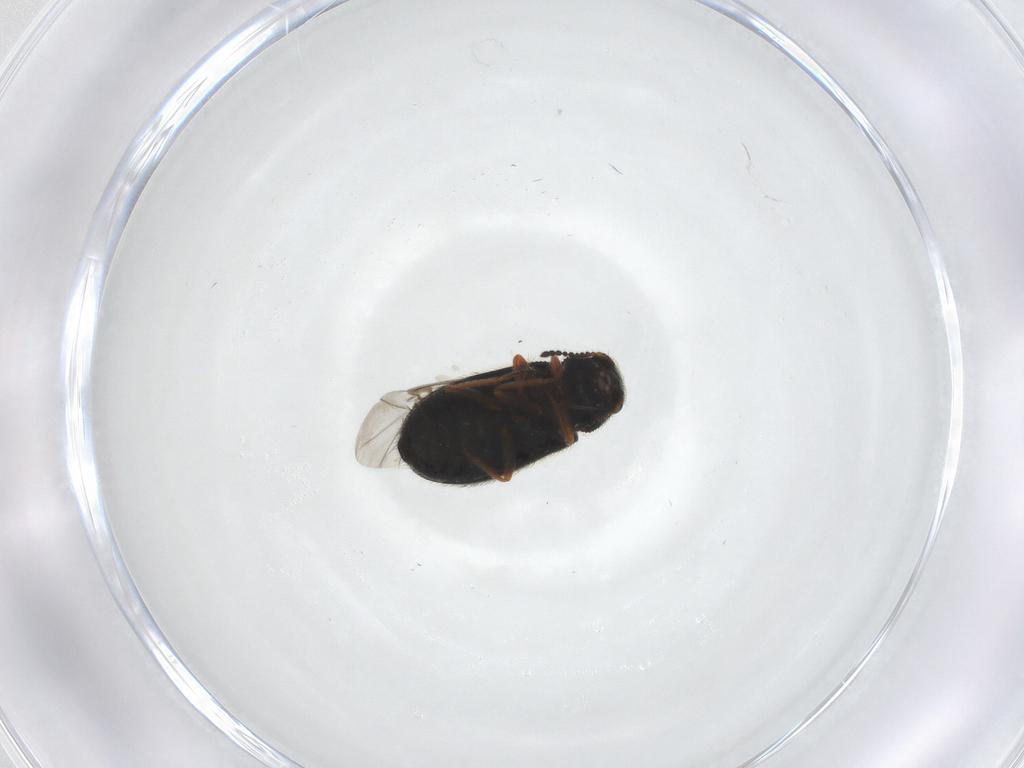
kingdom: Animalia
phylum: Arthropoda
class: Insecta
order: Coleoptera
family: Melyridae
